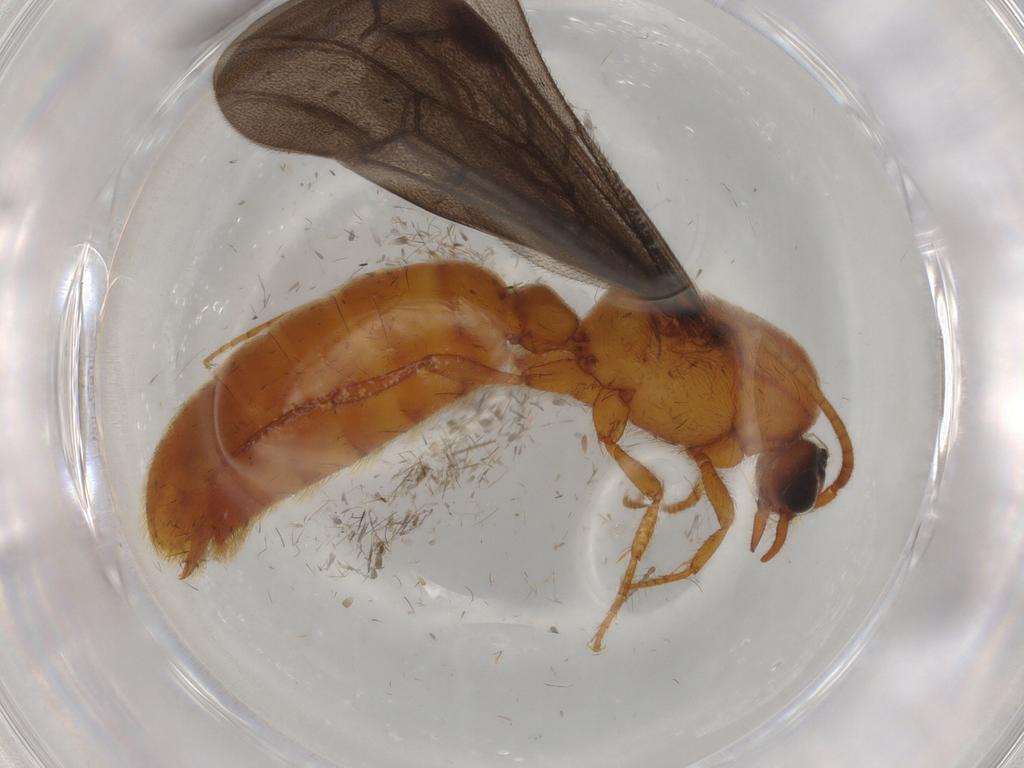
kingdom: Animalia
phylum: Arthropoda
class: Insecta
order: Hymenoptera
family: Formicidae
